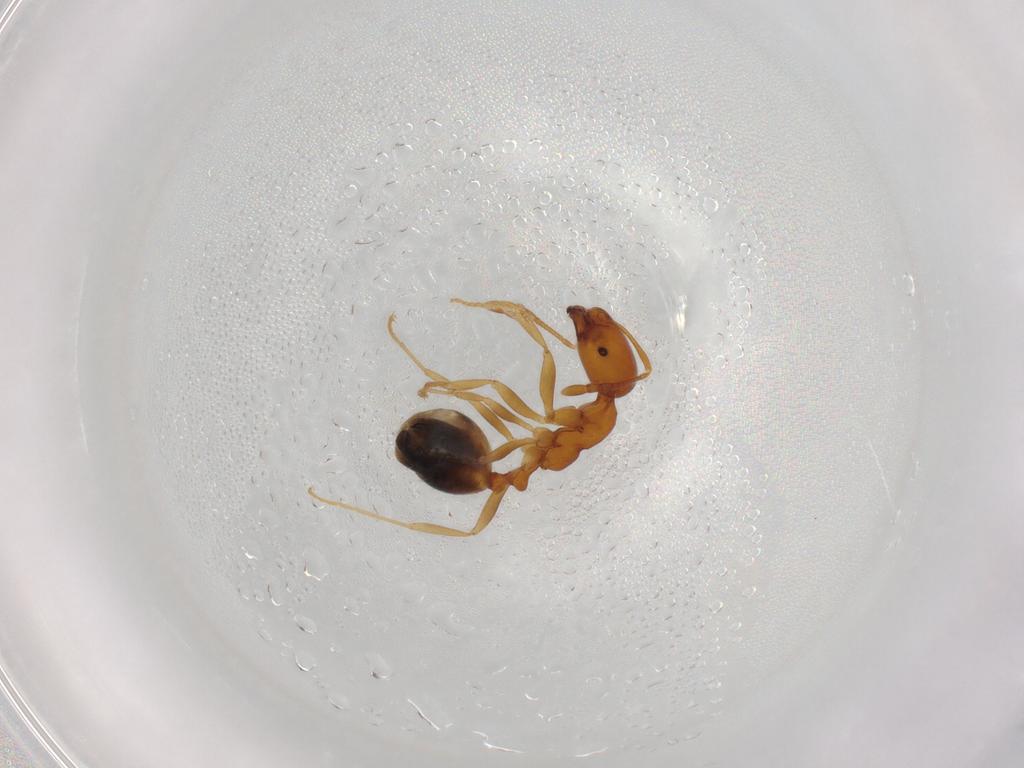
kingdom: Animalia
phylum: Arthropoda
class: Insecta
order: Hymenoptera
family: Formicidae
